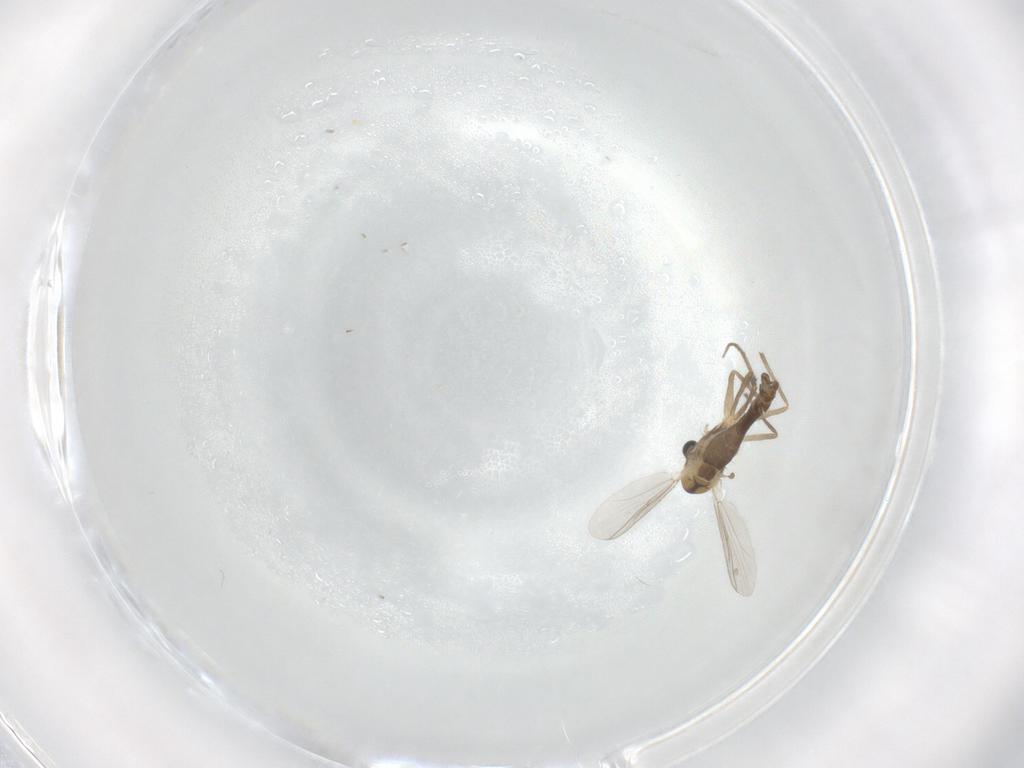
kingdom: Animalia
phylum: Arthropoda
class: Insecta
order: Diptera
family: Chironomidae
